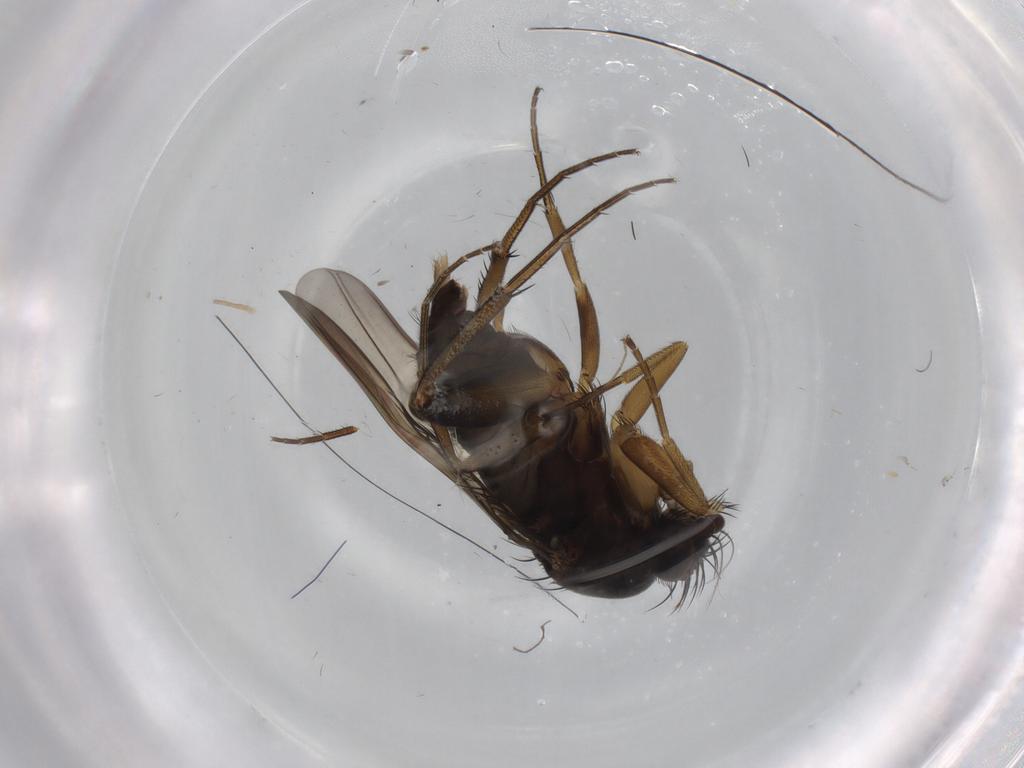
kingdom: Animalia
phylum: Arthropoda
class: Insecta
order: Diptera
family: Phoridae
